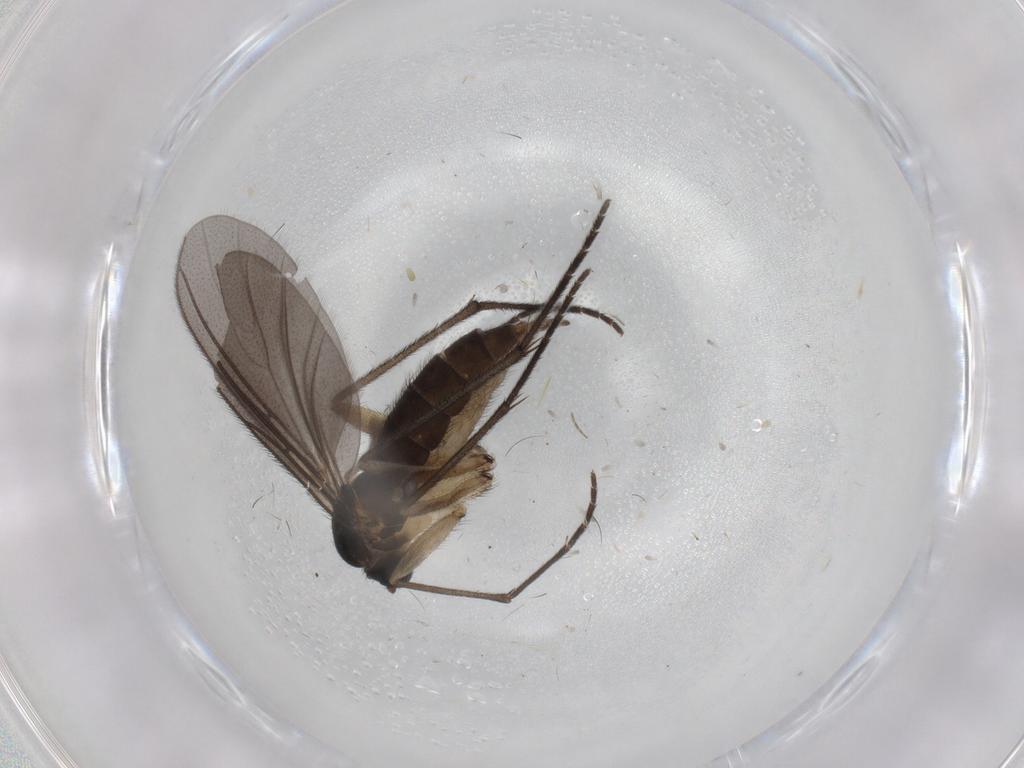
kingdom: Animalia
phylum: Arthropoda
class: Insecta
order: Diptera
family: Sciaridae
